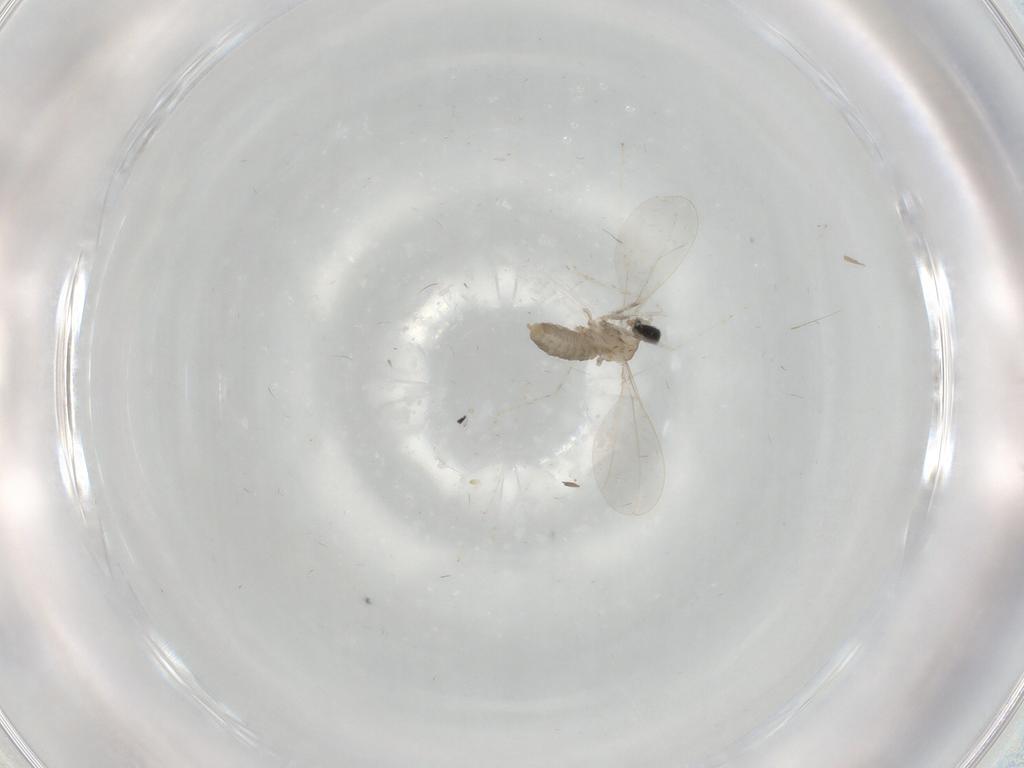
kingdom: Animalia
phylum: Arthropoda
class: Insecta
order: Diptera
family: Cecidomyiidae
